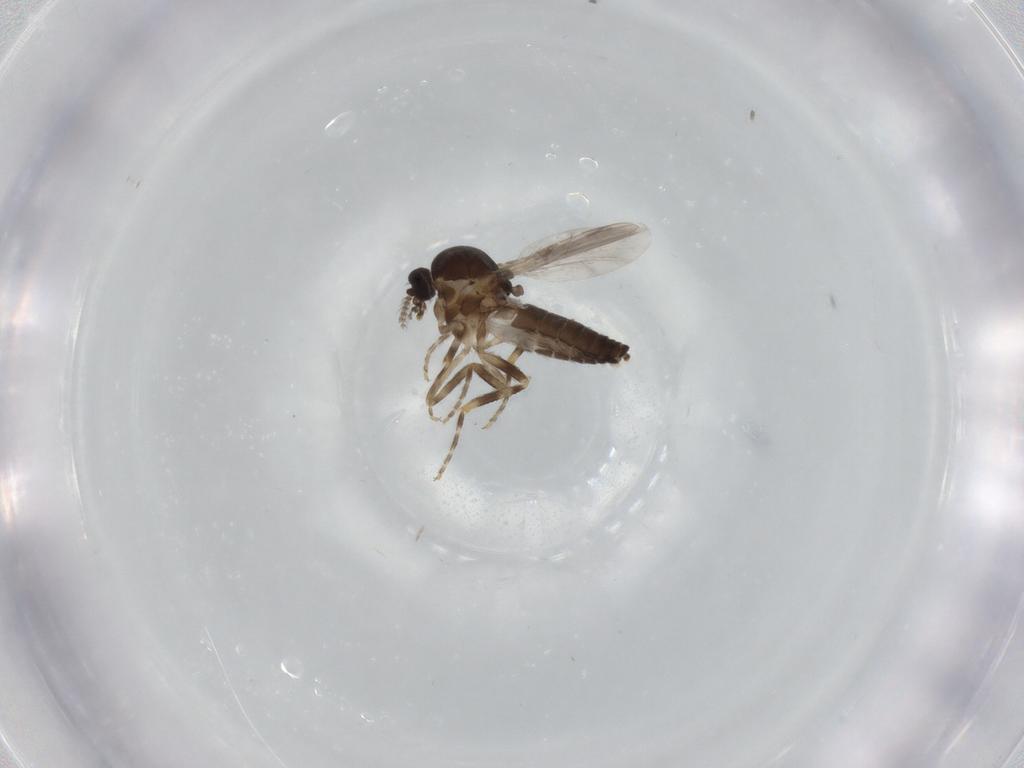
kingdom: Animalia
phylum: Arthropoda
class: Insecta
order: Diptera
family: Ceratopogonidae
